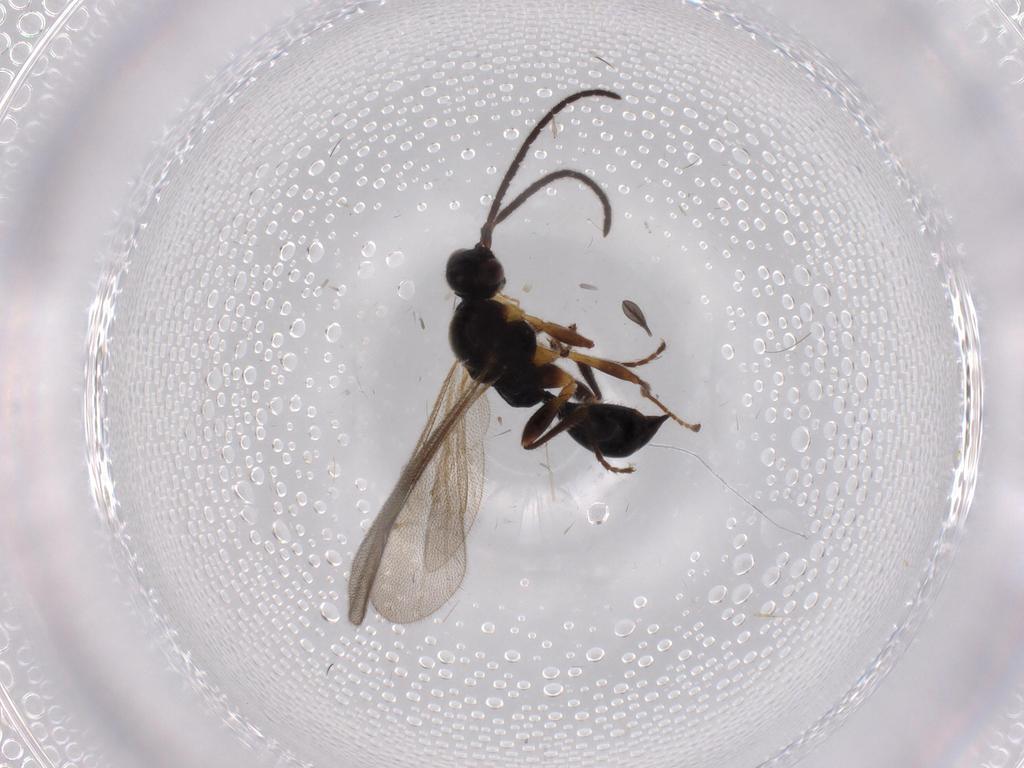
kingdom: Animalia
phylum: Arthropoda
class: Insecta
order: Hymenoptera
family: Proctotrupidae
